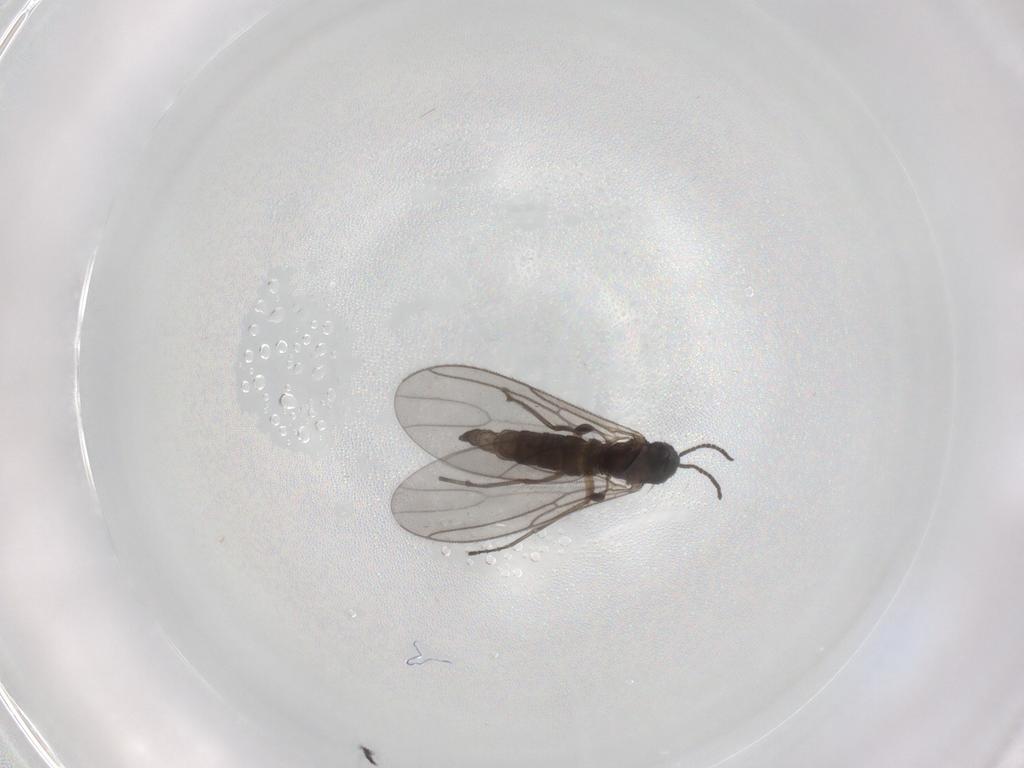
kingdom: Animalia
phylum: Arthropoda
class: Insecta
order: Diptera
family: Sciaridae
